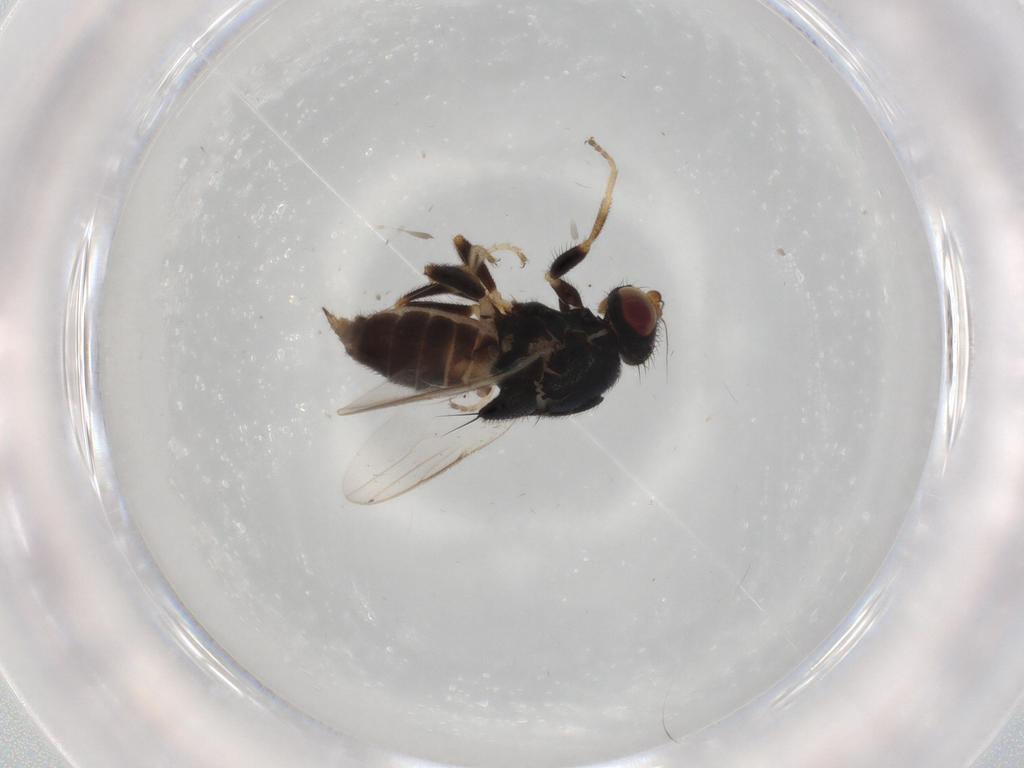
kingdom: Animalia
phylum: Arthropoda
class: Insecta
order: Diptera
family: Chloropidae
